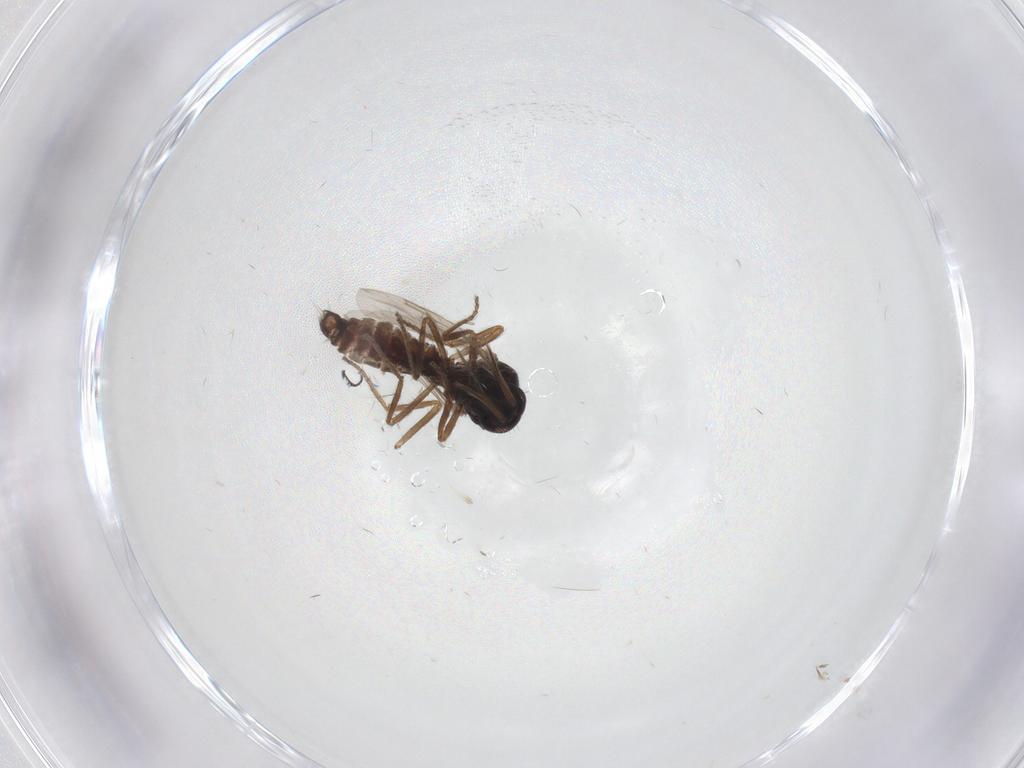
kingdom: Animalia
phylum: Arthropoda
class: Insecta
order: Diptera
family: Ceratopogonidae
